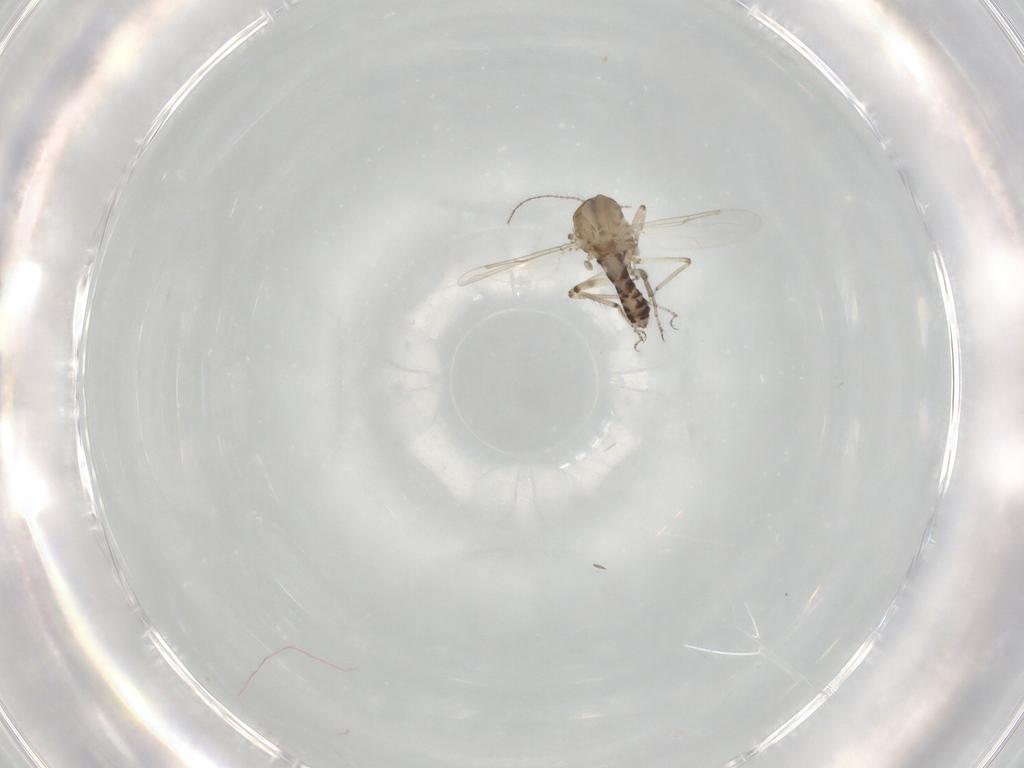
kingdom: Animalia
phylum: Arthropoda
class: Insecta
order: Diptera
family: Ceratopogonidae
